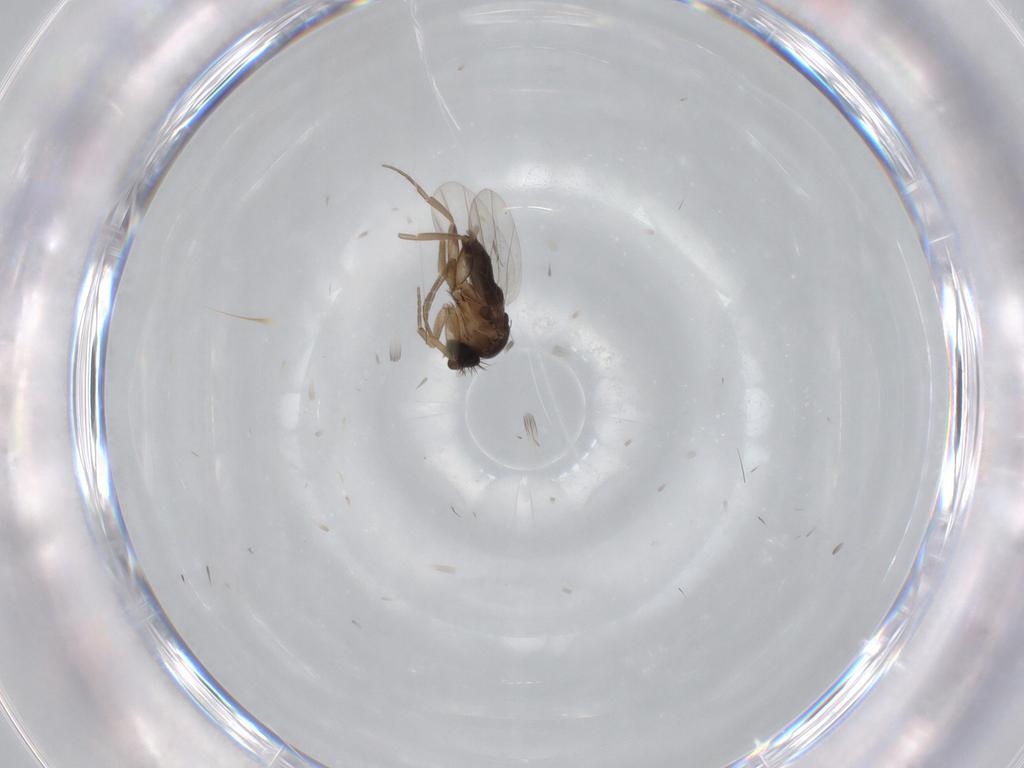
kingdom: Animalia
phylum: Arthropoda
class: Insecta
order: Diptera
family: Phoridae
